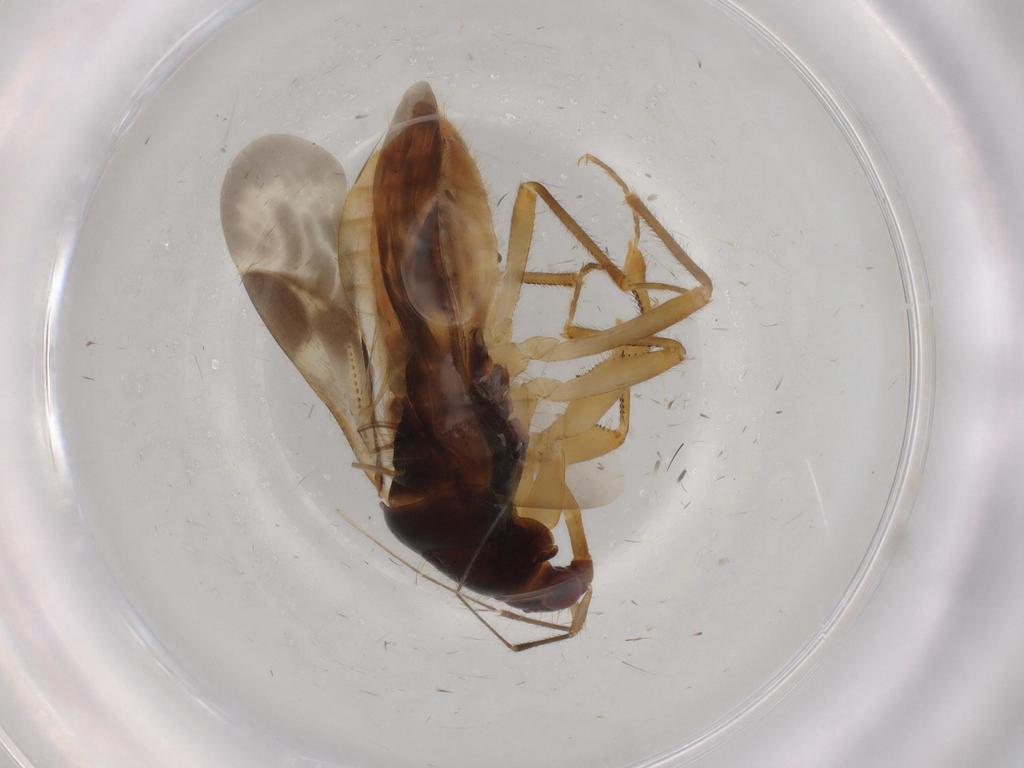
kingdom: Animalia
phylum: Arthropoda
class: Insecta
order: Hemiptera
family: Nabidae
